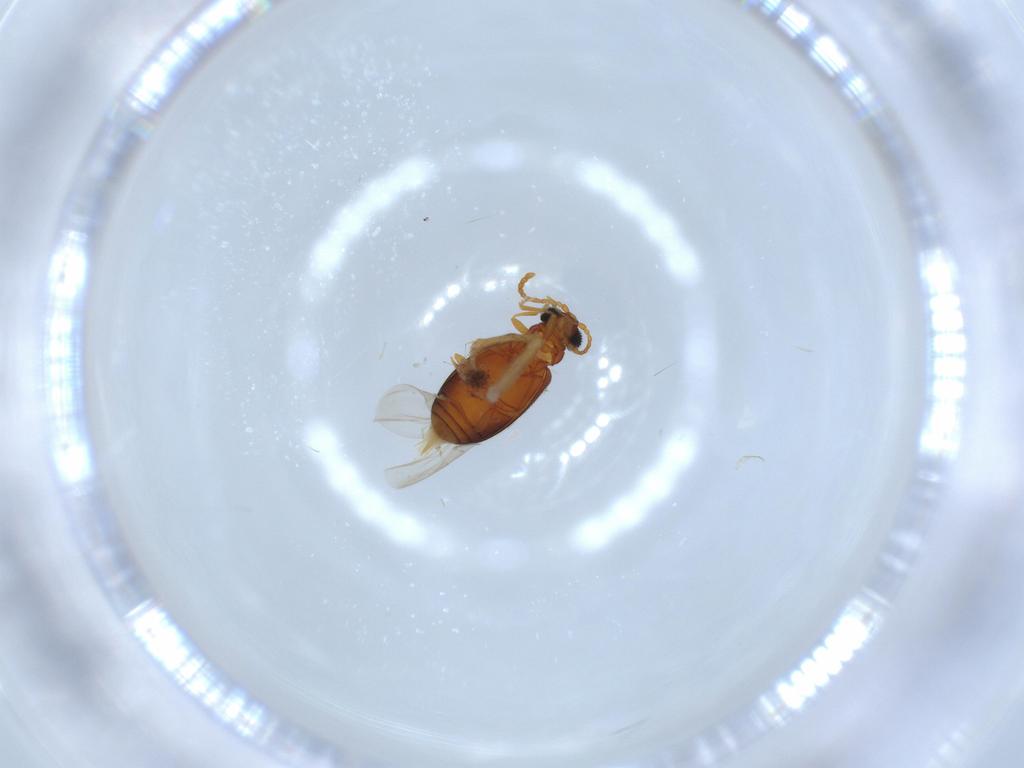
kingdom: Animalia
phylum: Arthropoda
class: Insecta
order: Coleoptera
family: Aderidae
